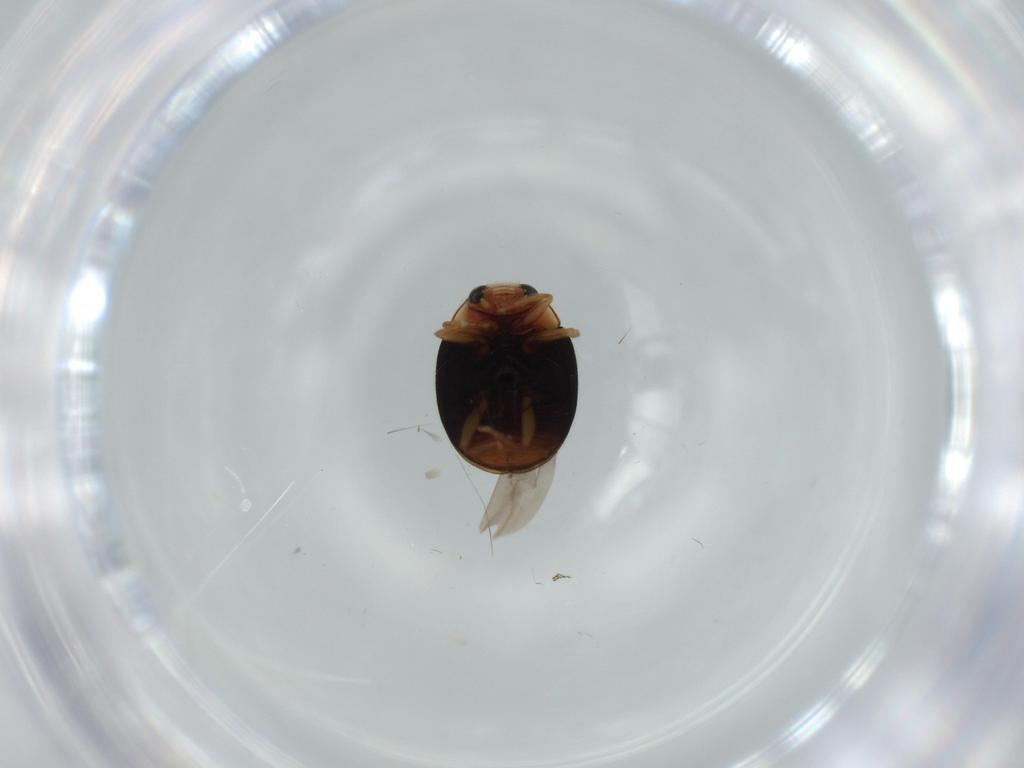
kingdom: Animalia
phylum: Arthropoda
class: Insecta
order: Coleoptera
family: Coccinellidae
